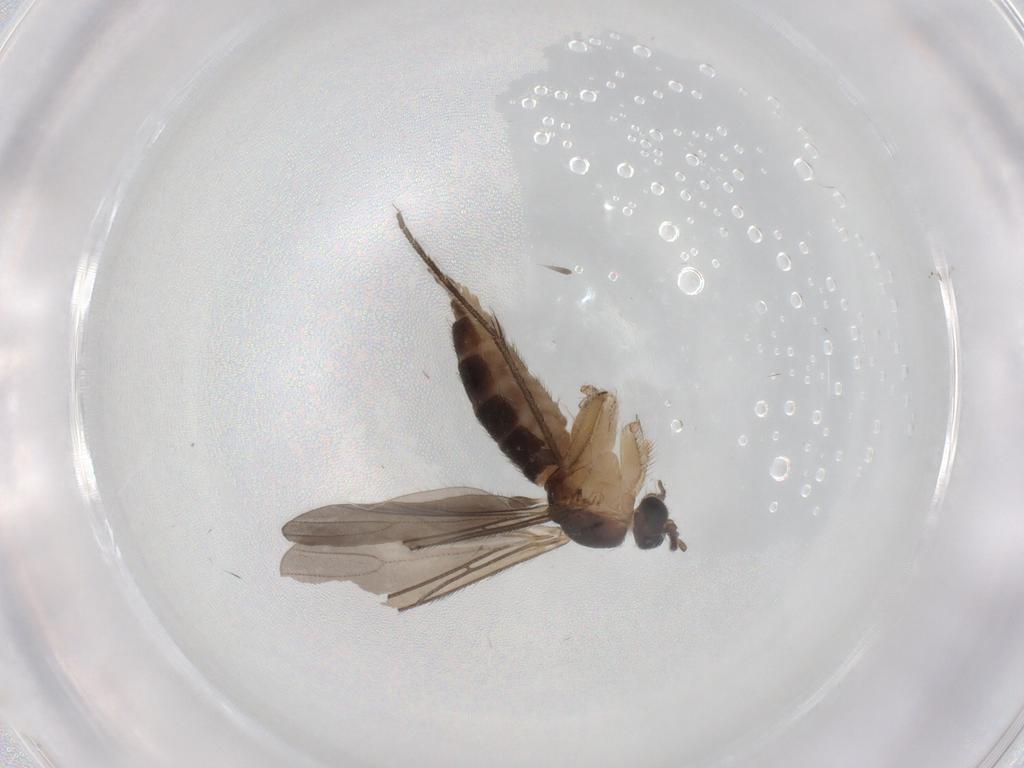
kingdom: Animalia
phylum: Arthropoda
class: Insecta
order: Diptera
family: Sciaridae
